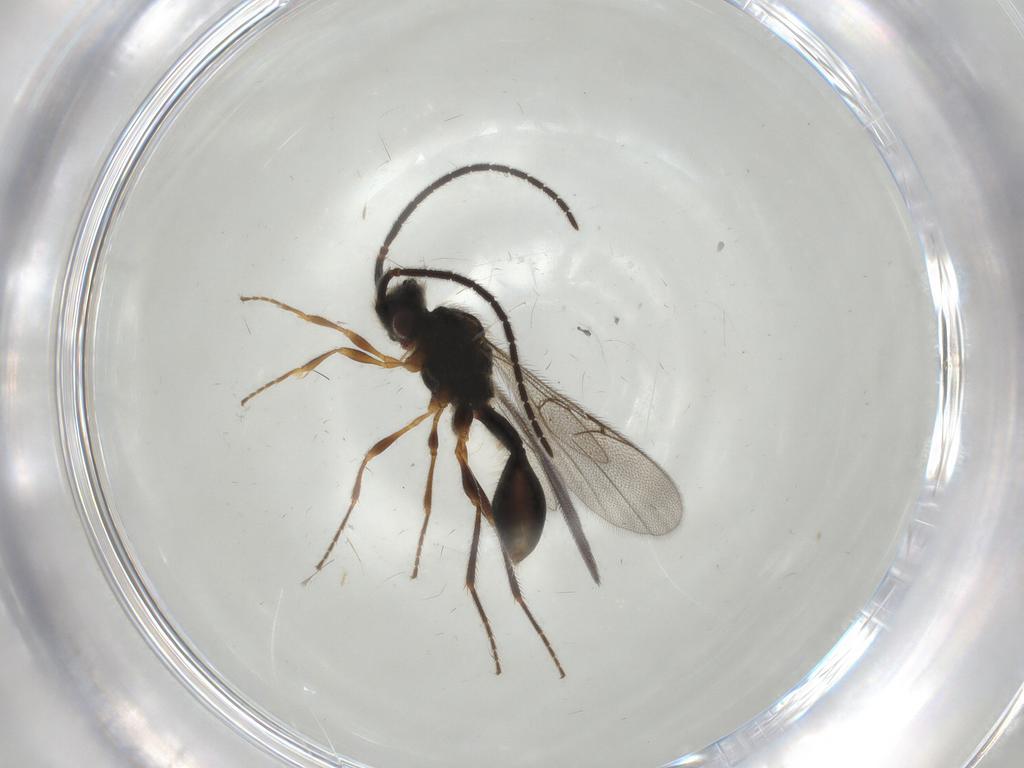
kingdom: Animalia
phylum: Arthropoda
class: Insecta
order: Hymenoptera
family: Diapriidae
